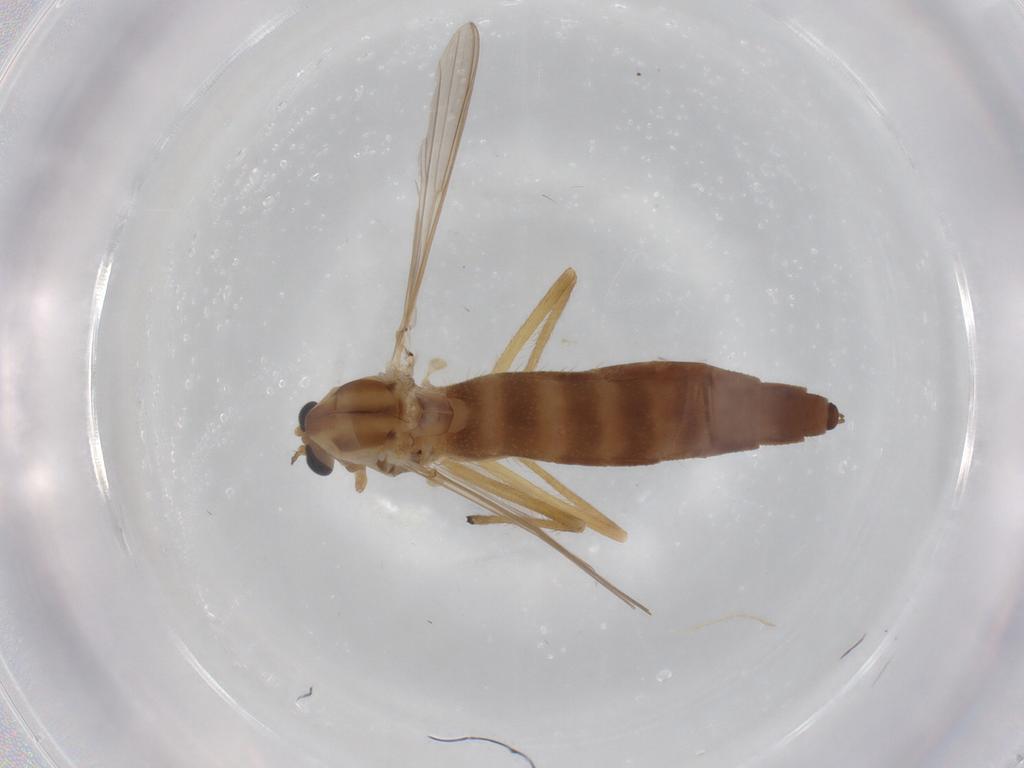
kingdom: Animalia
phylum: Arthropoda
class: Insecta
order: Diptera
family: Chironomidae
